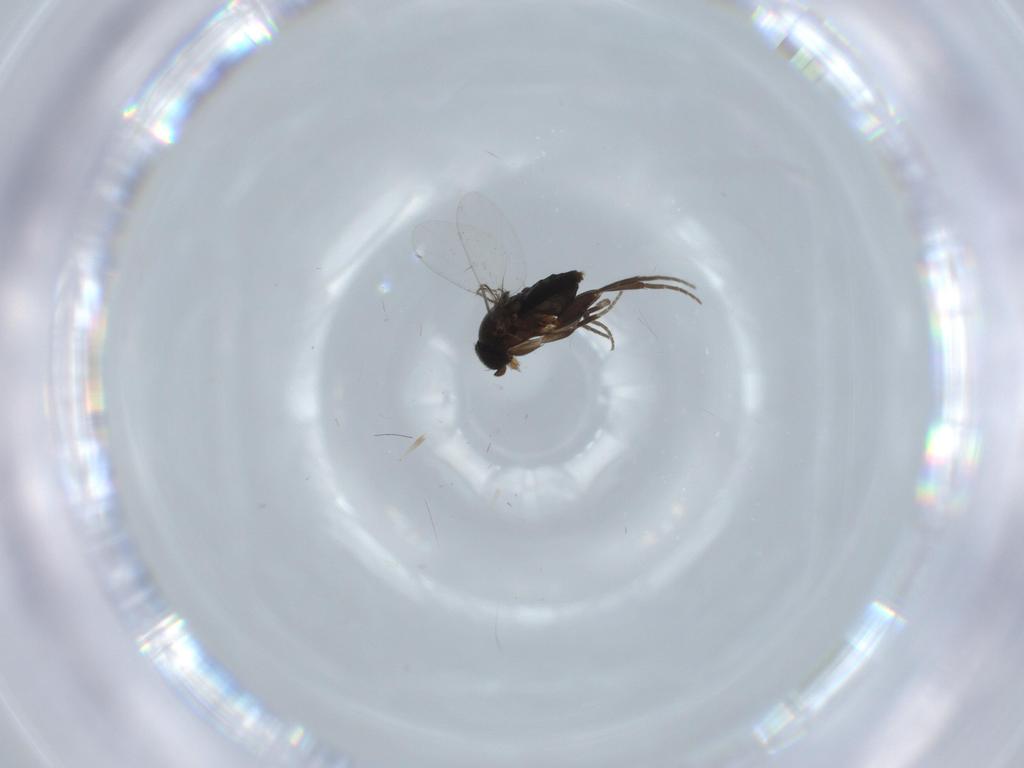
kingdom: Animalia
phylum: Arthropoda
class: Insecta
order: Diptera
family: Phoridae
